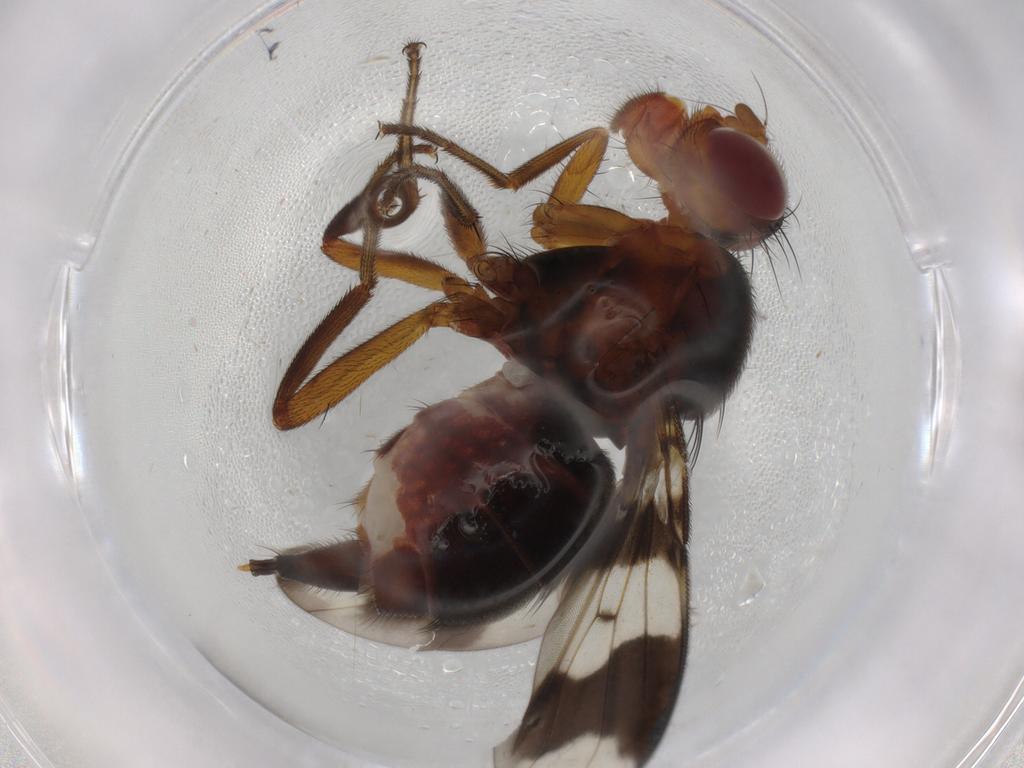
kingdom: Animalia
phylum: Arthropoda
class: Insecta
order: Diptera
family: Richardiidae
